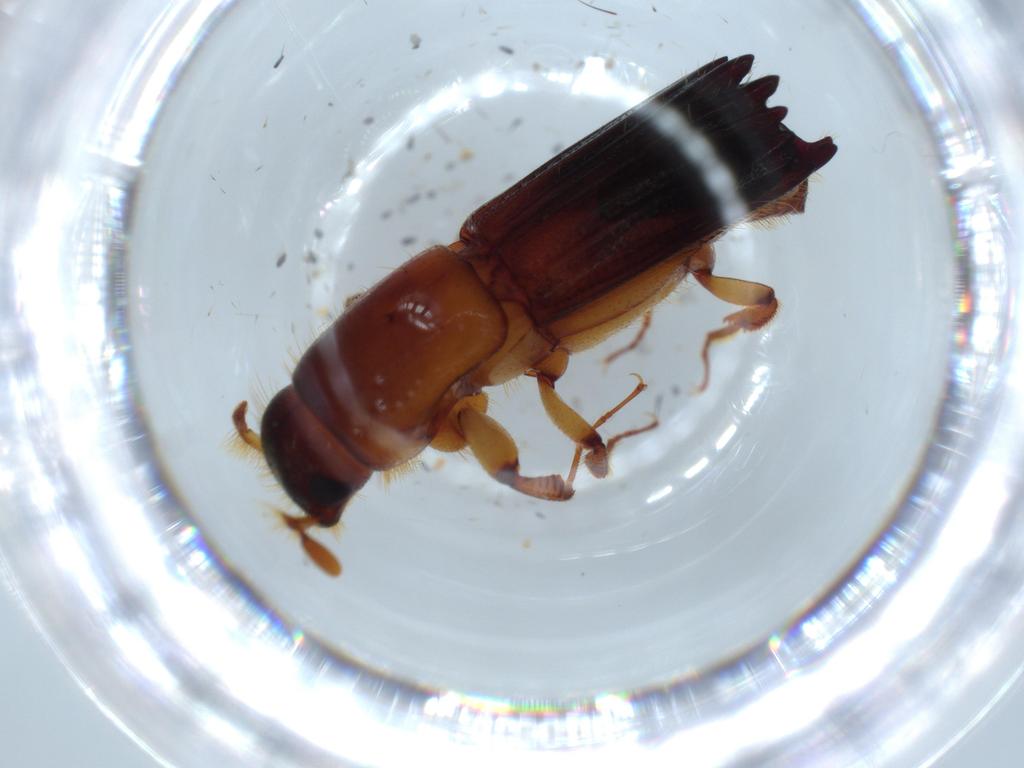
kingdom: Animalia
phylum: Arthropoda
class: Insecta
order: Coleoptera
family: Curculionidae
